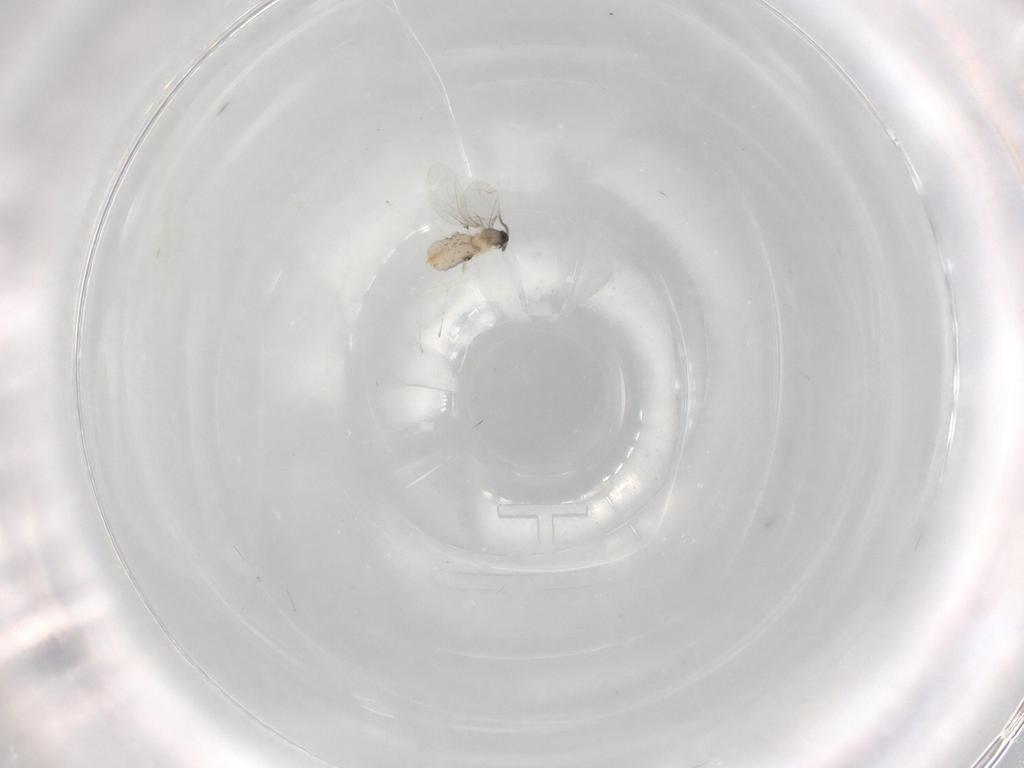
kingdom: Animalia
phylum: Arthropoda
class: Insecta
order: Diptera
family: Cecidomyiidae
